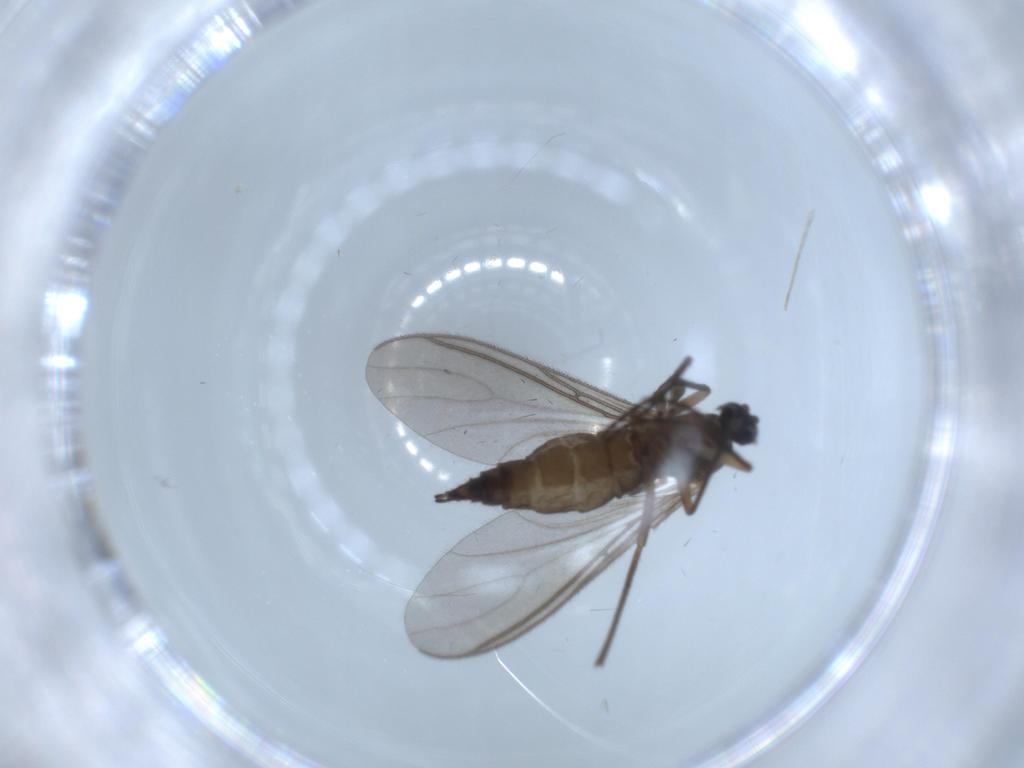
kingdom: Animalia
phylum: Arthropoda
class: Insecta
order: Diptera
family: Sciaridae
